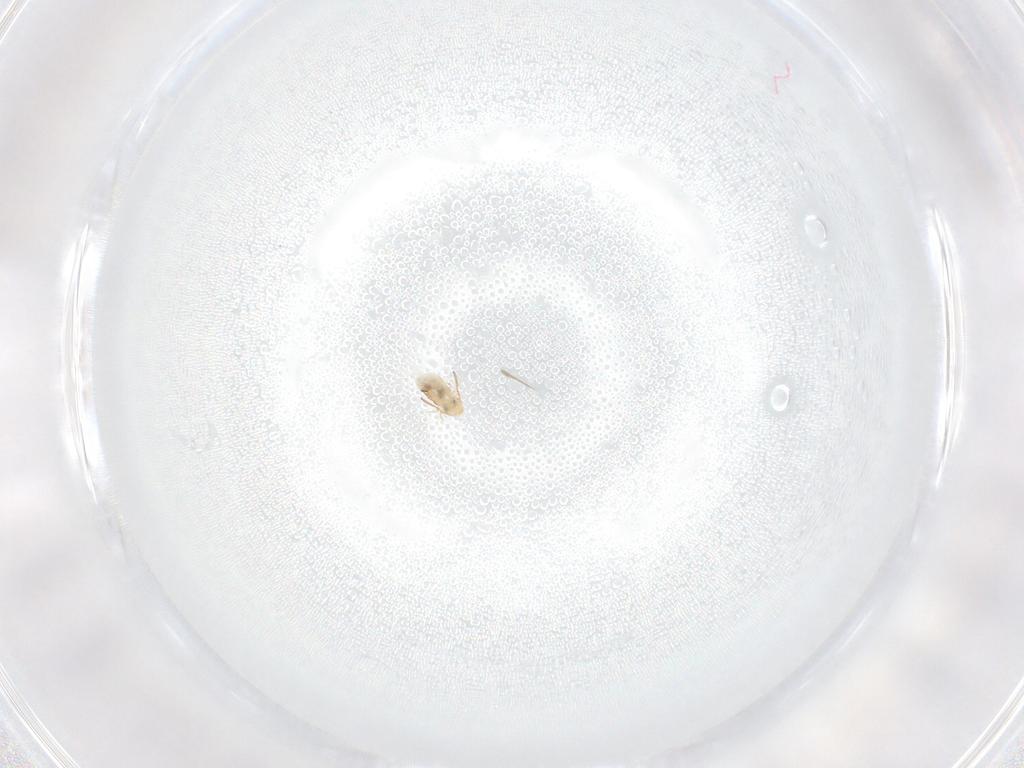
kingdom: Animalia
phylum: Arthropoda
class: Collembola
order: Symphypleona
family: Bourletiellidae
